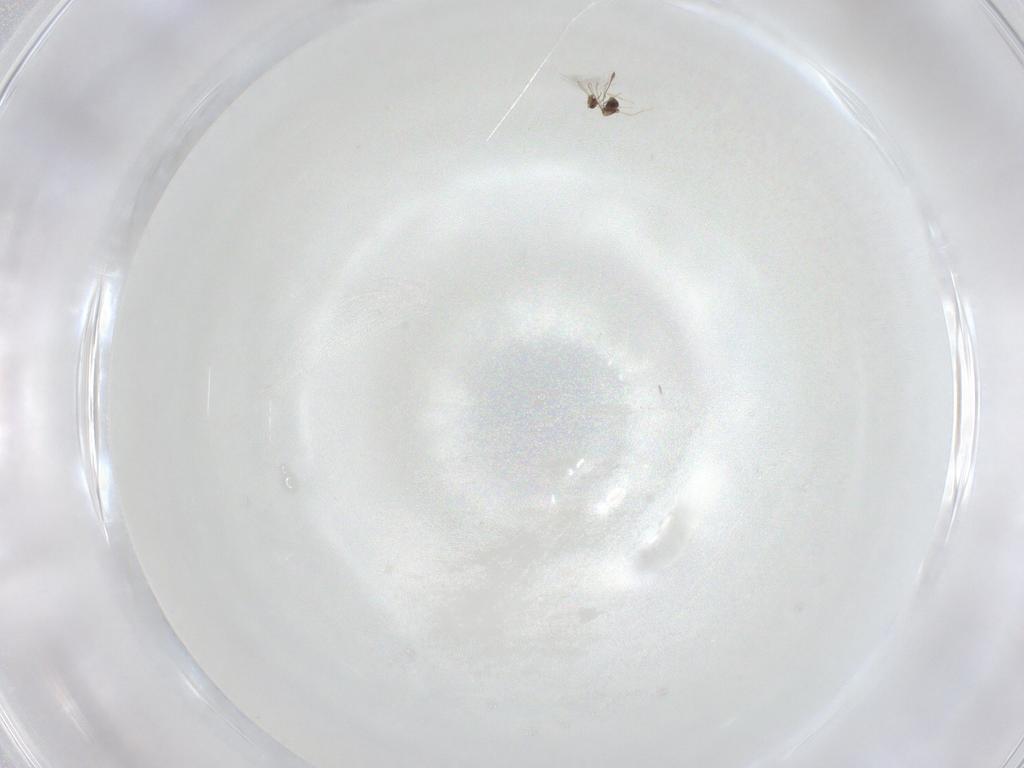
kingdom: Animalia
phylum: Arthropoda
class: Insecta
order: Hymenoptera
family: Mymaridae
